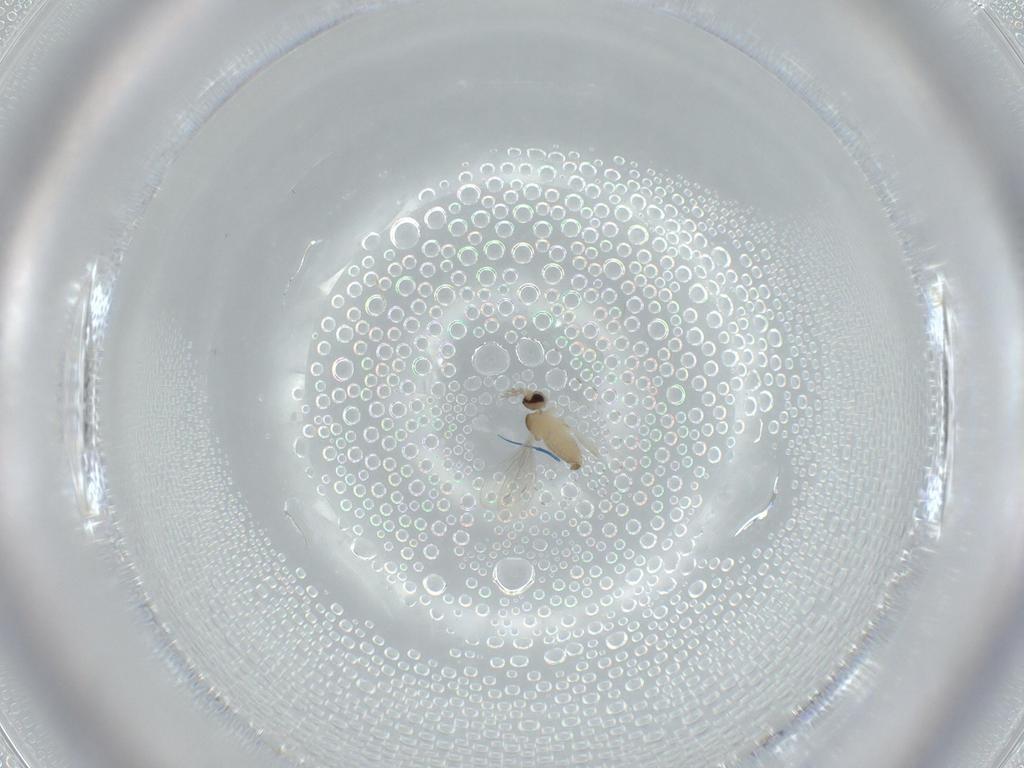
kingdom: Animalia
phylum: Arthropoda
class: Insecta
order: Diptera
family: Cecidomyiidae
